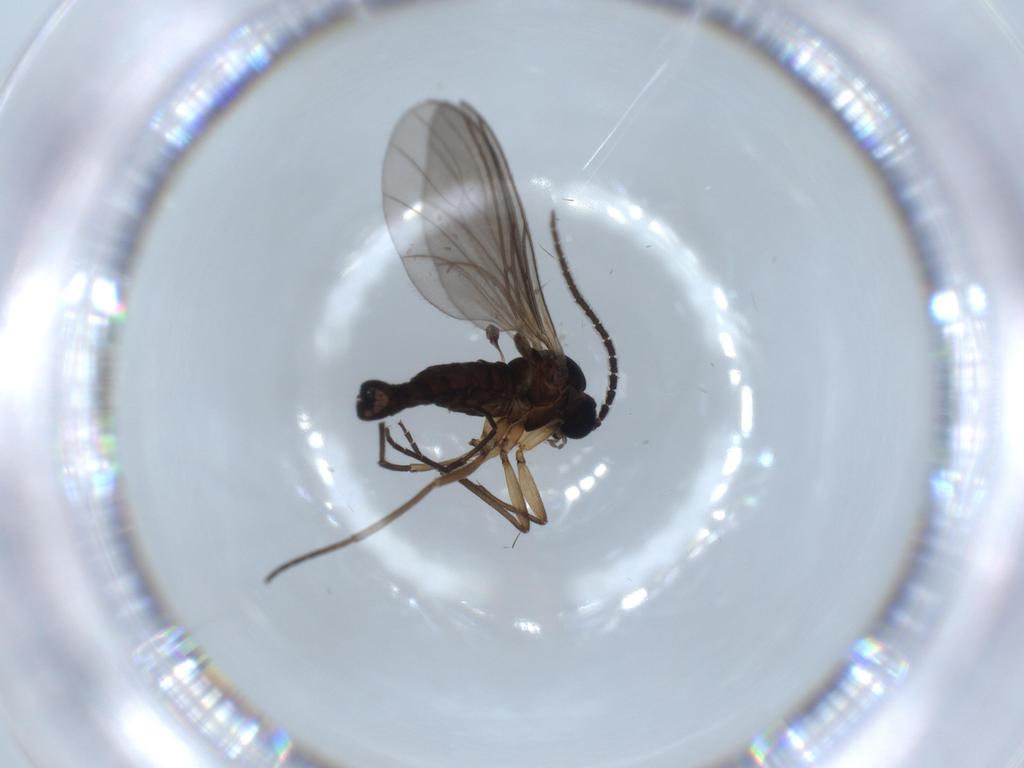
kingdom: Animalia
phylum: Arthropoda
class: Insecta
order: Diptera
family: Sciaridae
